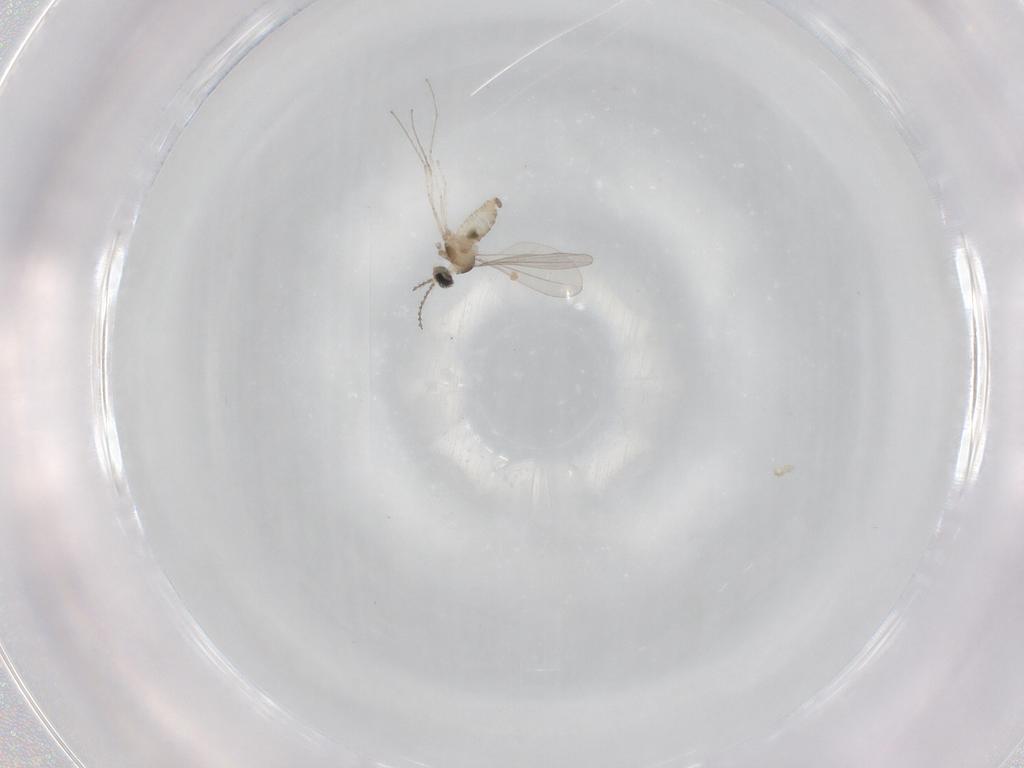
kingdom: Animalia
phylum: Arthropoda
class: Insecta
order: Diptera
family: Cecidomyiidae
